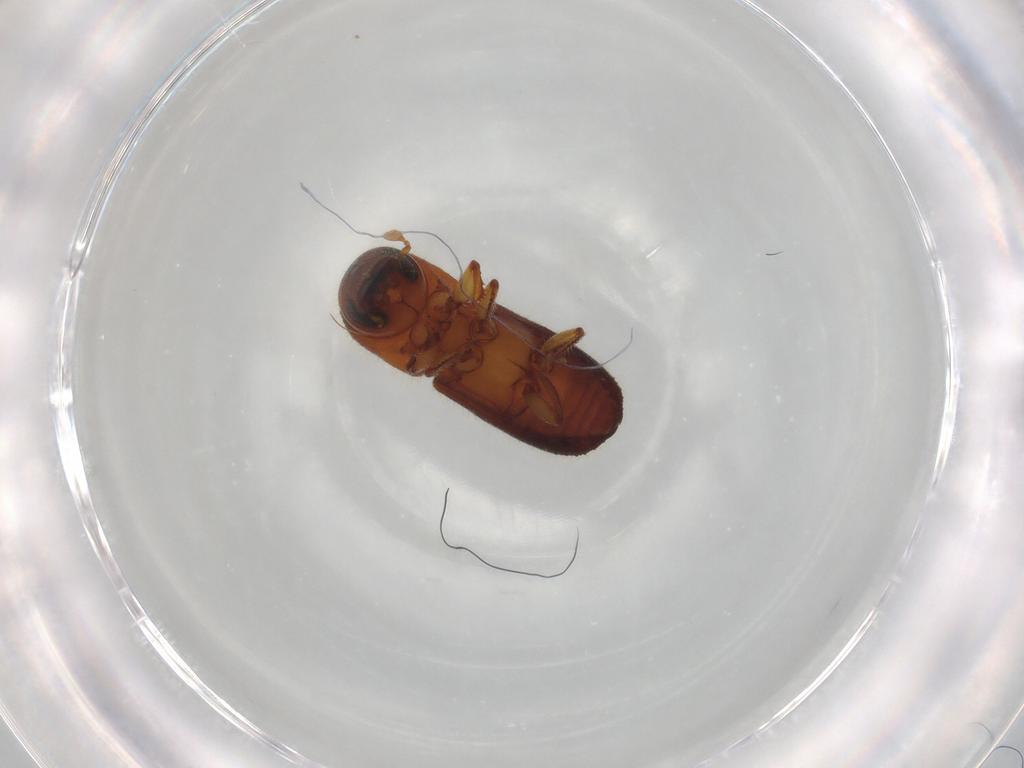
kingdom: Animalia
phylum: Arthropoda
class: Insecta
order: Coleoptera
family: Curculionidae
